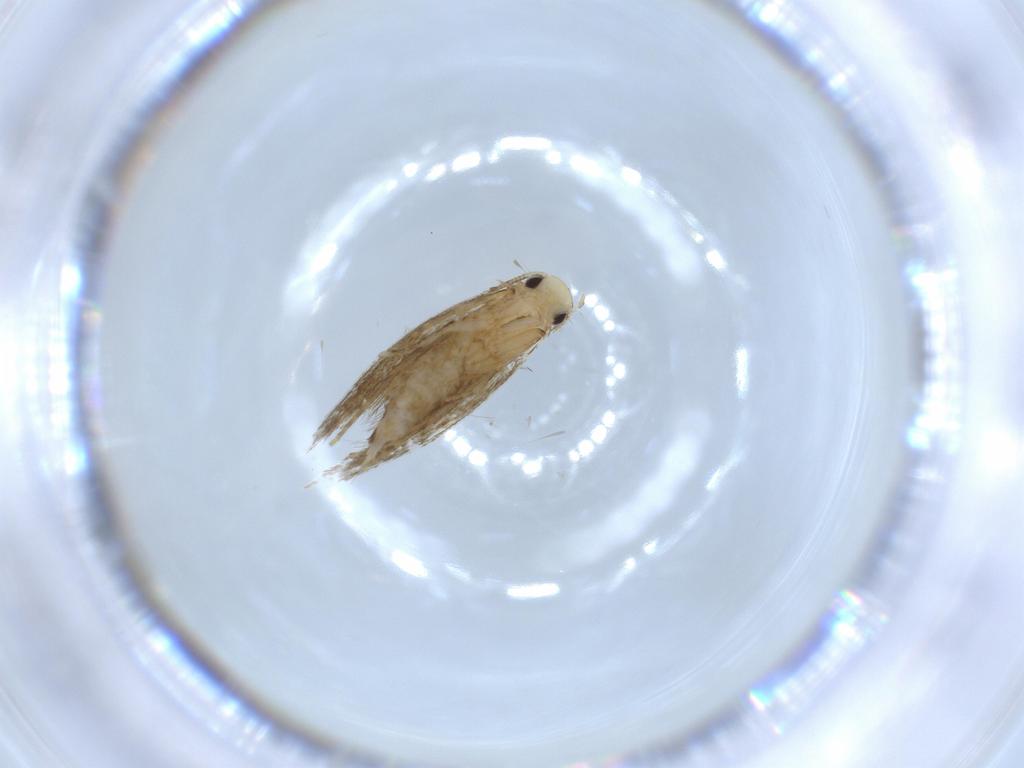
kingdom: Animalia
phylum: Arthropoda
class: Insecta
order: Lepidoptera
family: Tineidae
